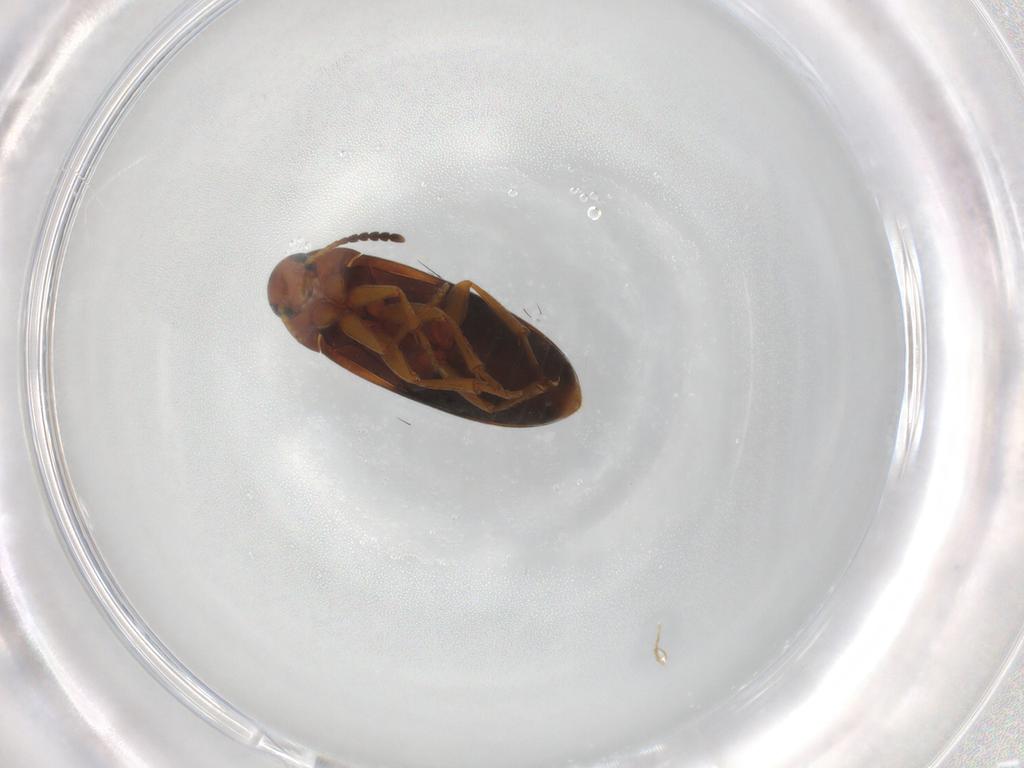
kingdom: Animalia
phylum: Arthropoda
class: Insecta
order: Coleoptera
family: Scraptiidae
